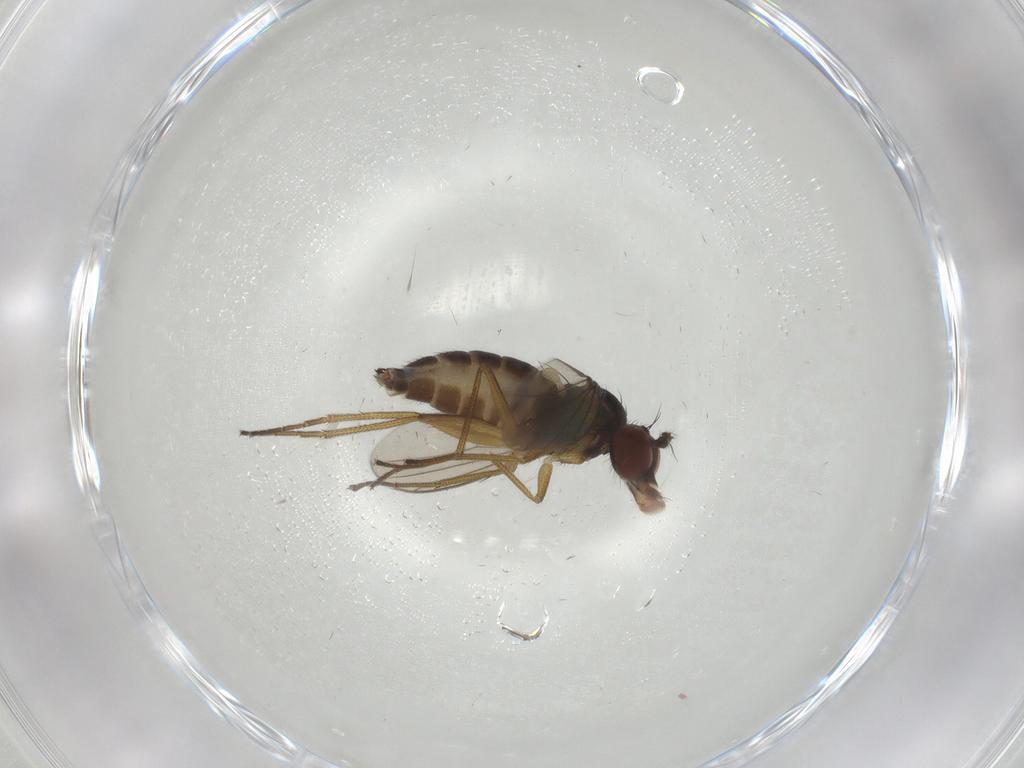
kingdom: Animalia
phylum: Arthropoda
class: Insecta
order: Diptera
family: Dolichopodidae
